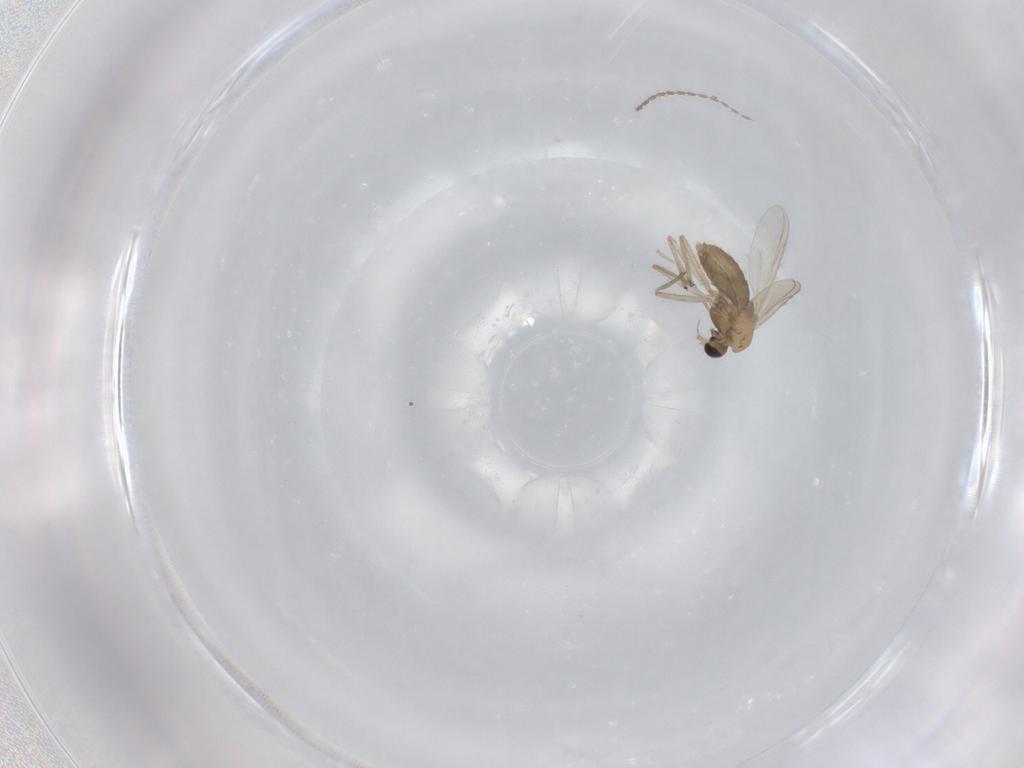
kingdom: Animalia
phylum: Arthropoda
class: Insecta
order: Diptera
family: Chironomidae
